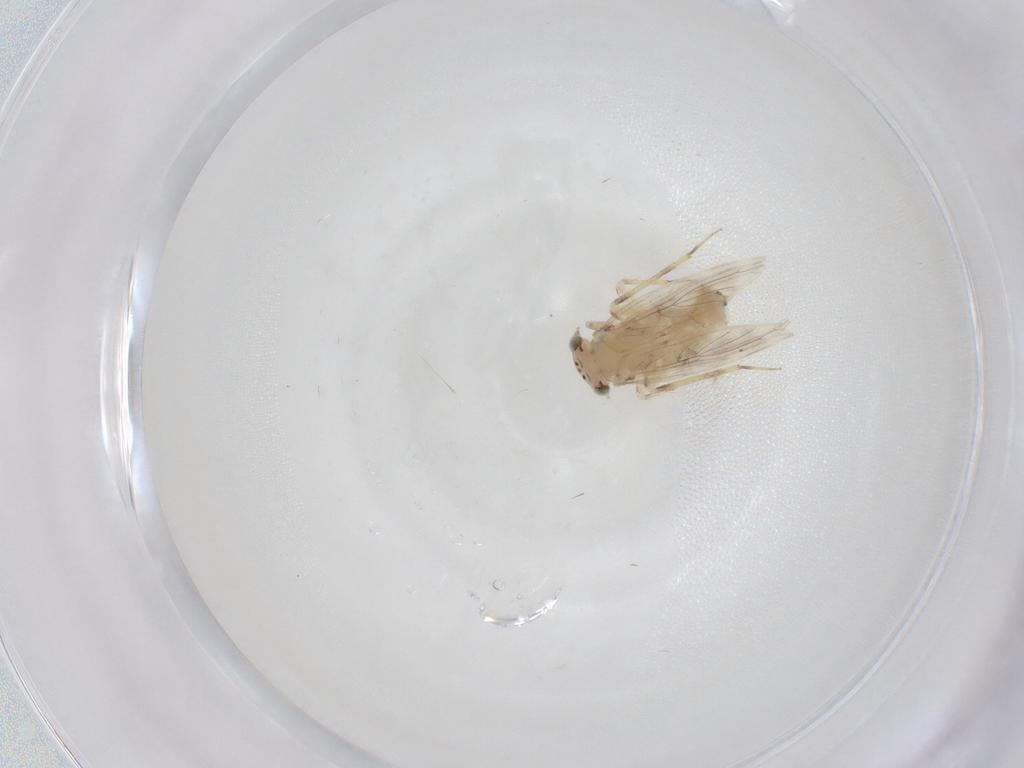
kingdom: Animalia
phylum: Arthropoda
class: Insecta
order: Psocodea
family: Lepidopsocidae
